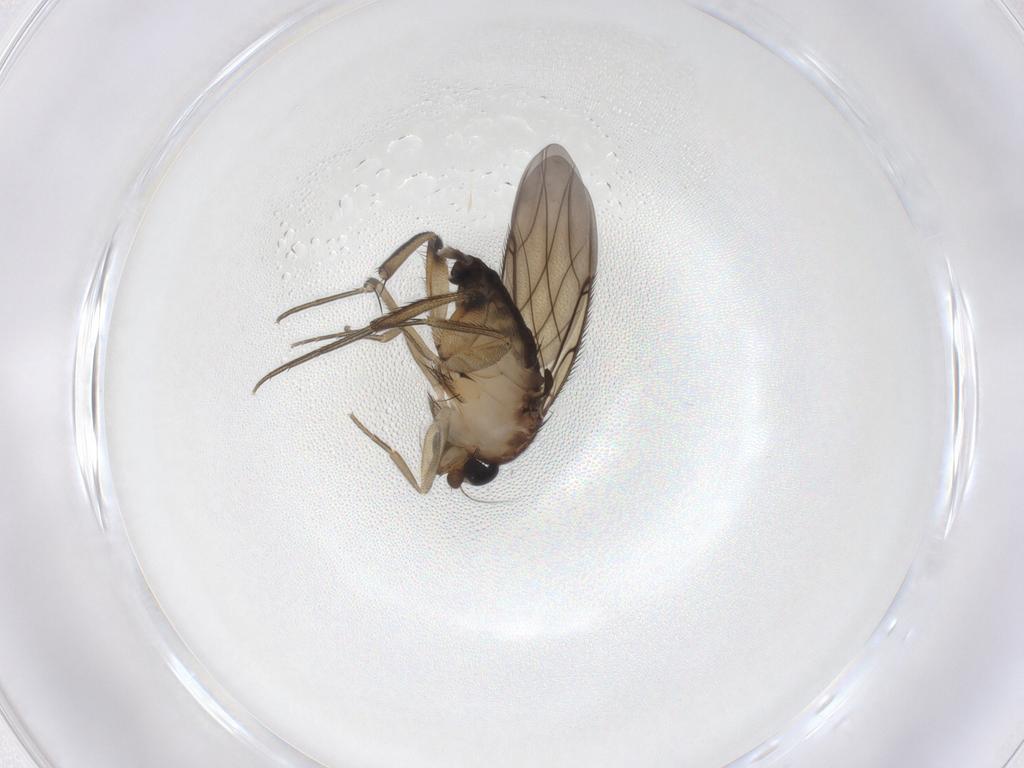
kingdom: Animalia
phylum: Arthropoda
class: Insecta
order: Diptera
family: Phoridae
